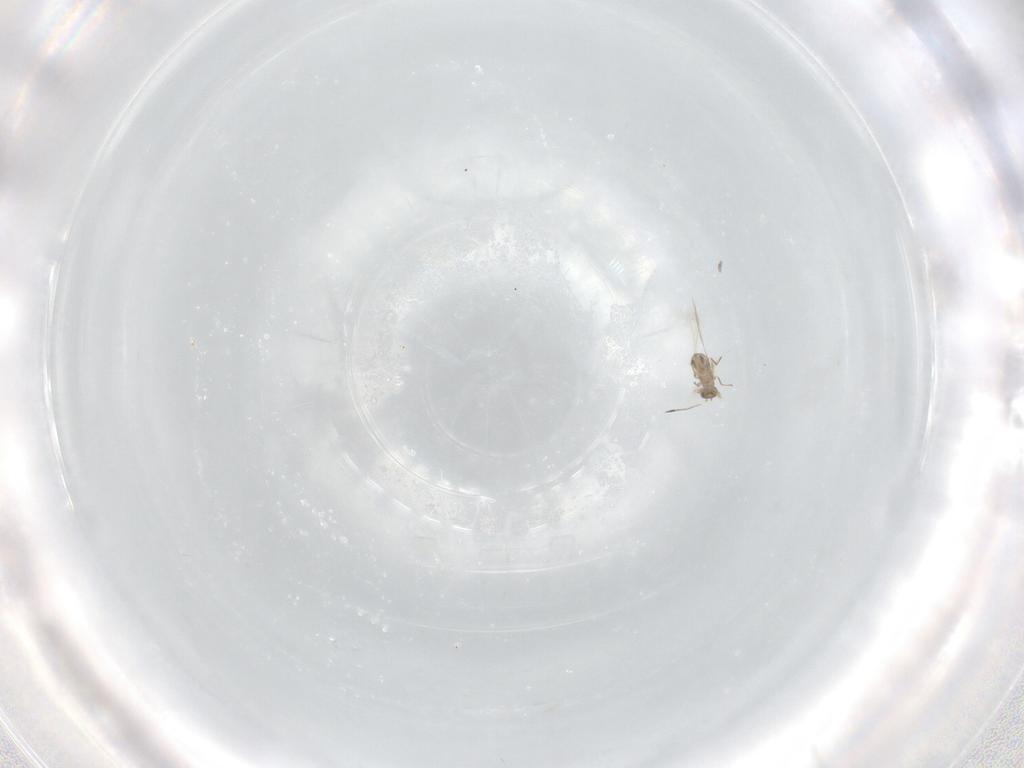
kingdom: Animalia
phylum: Arthropoda
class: Insecta
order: Hymenoptera
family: Mymaridae
